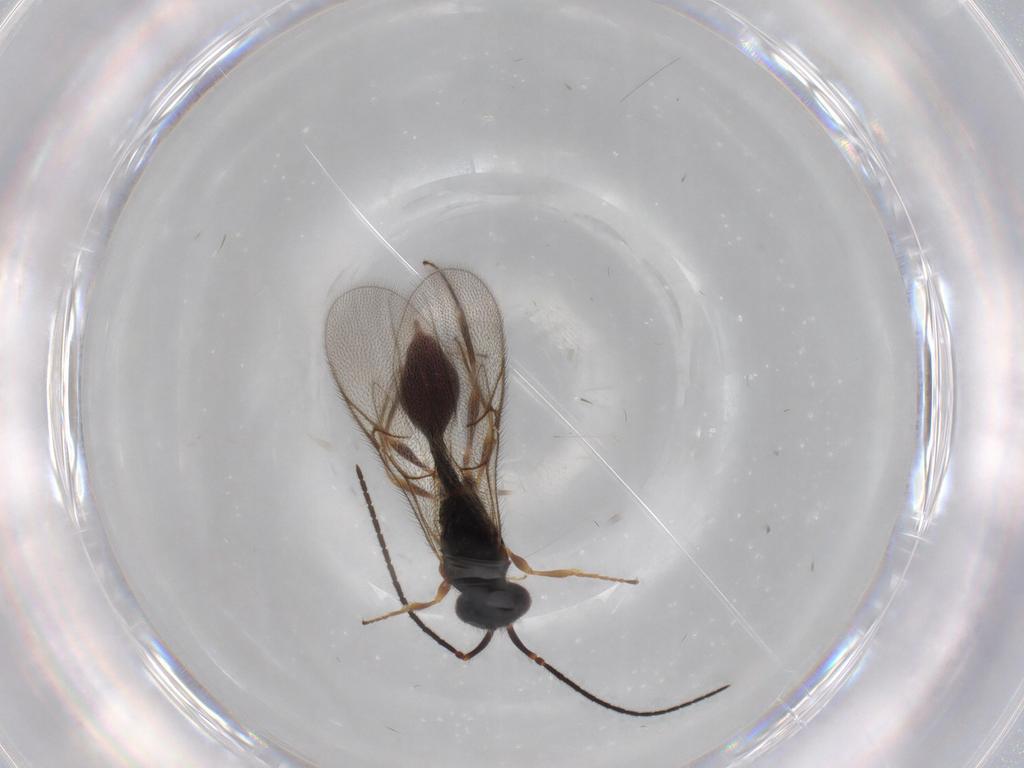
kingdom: Animalia
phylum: Arthropoda
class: Insecta
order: Hymenoptera
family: Diapriidae
